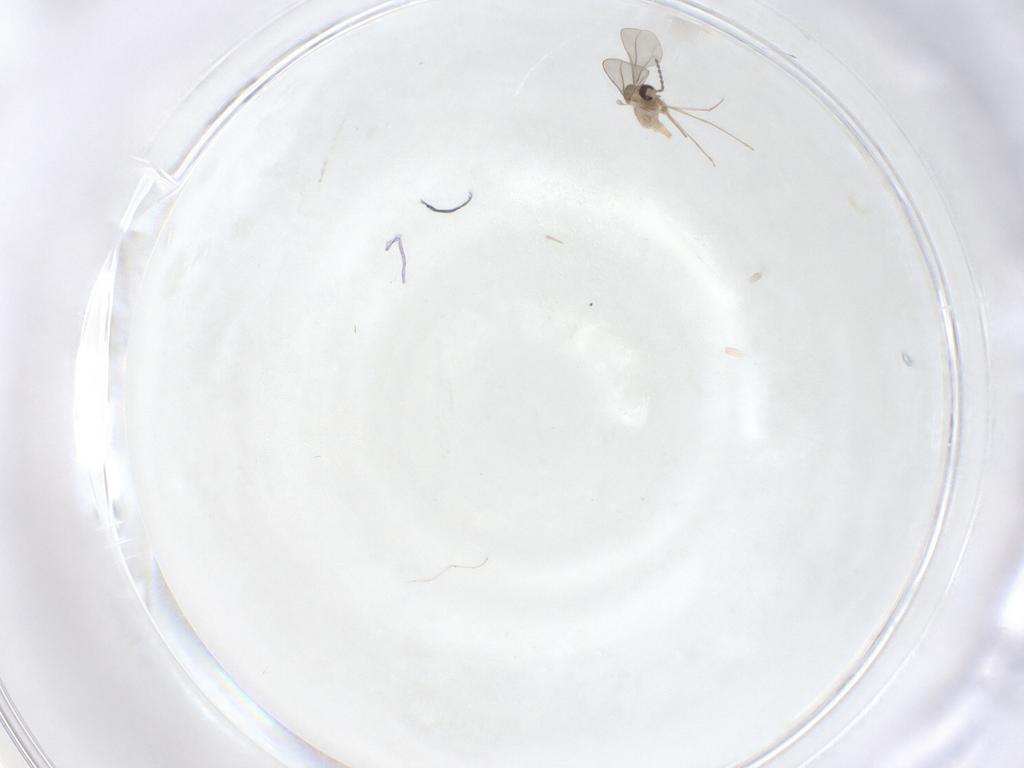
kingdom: Animalia
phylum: Arthropoda
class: Insecta
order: Diptera
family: Cecidomyiidae
